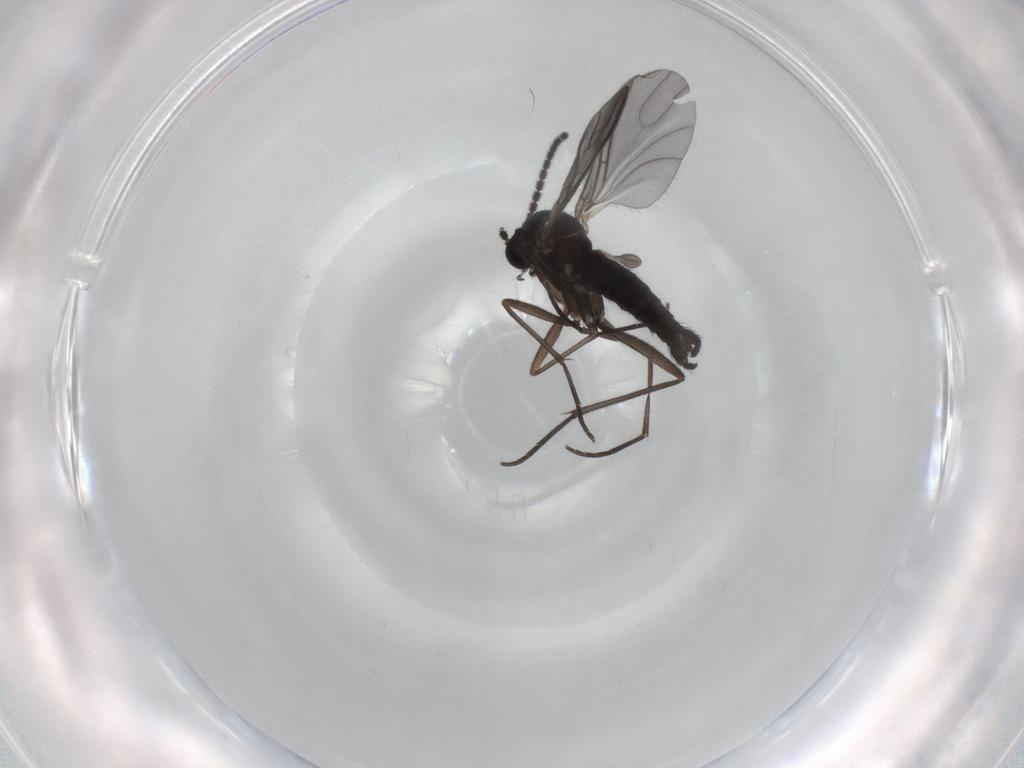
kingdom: Animalia
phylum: Arthropoda
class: Insecta
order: Diptera
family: Sciaridae
